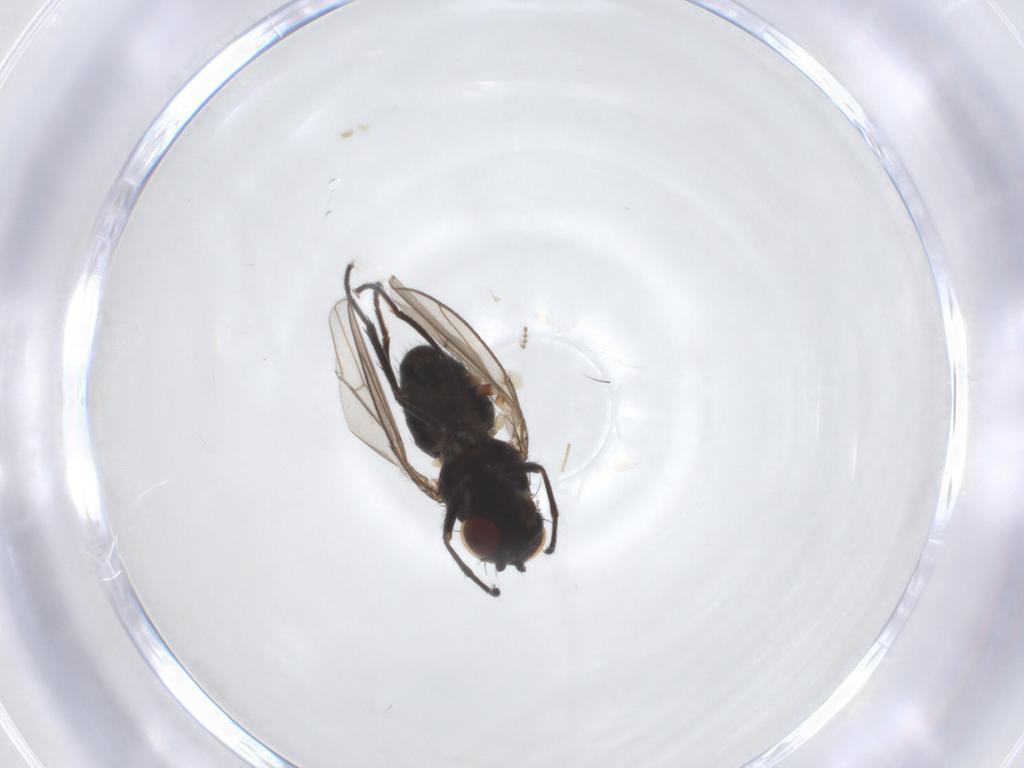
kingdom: Animalia
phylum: Arthropoda
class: Insecta
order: Diptera
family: Ephydridae
